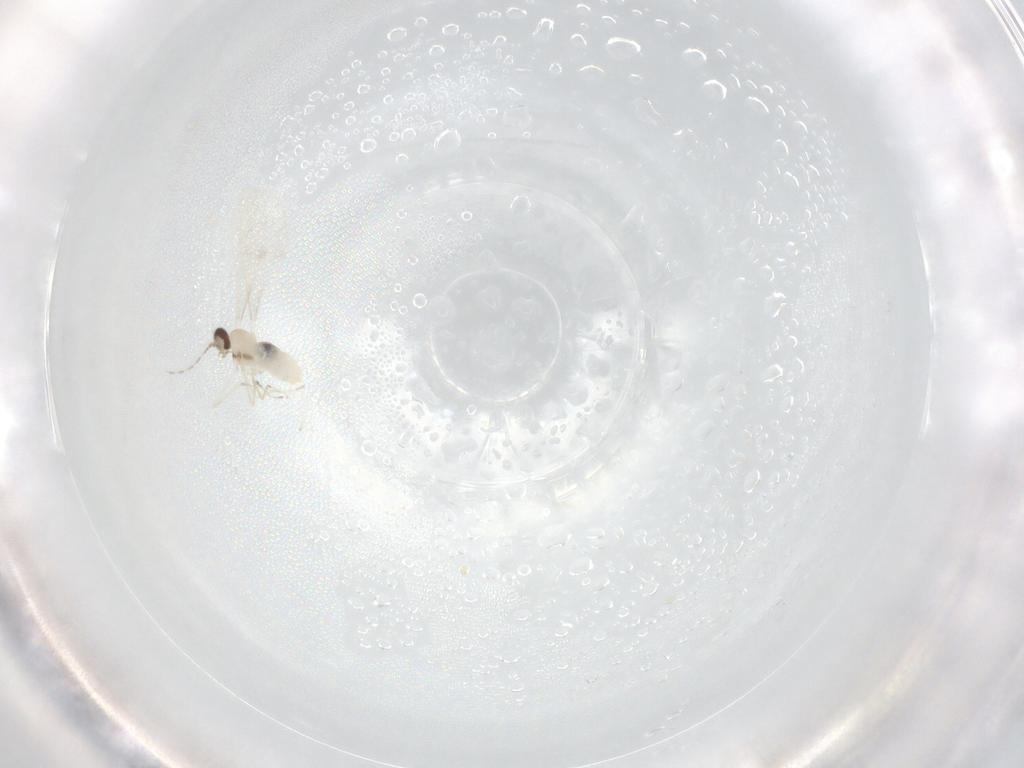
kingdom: Animalia
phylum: Arthropoda
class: Insecta
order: Diptera
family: Cecidomyiidae
